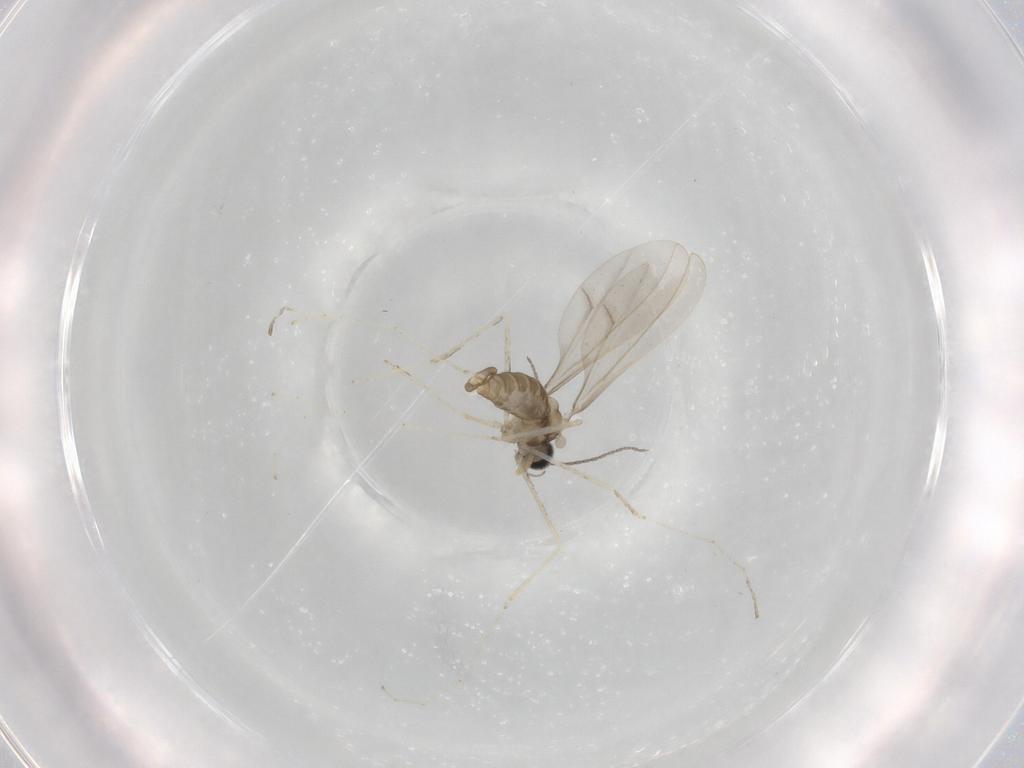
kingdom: Animalia
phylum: Arthropoda
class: Insecta
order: Diptera
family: Cecidomyiidae
